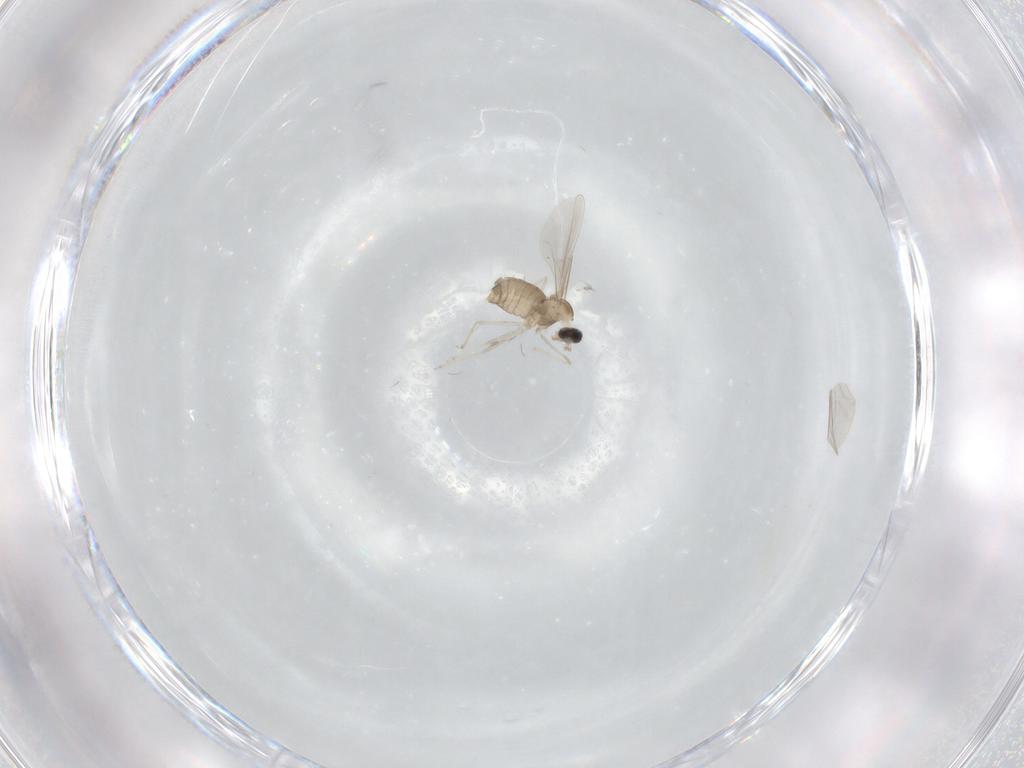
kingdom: Animalia
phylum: Arthropoda
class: Insecta
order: Diptera
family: Cecidomyiidae
